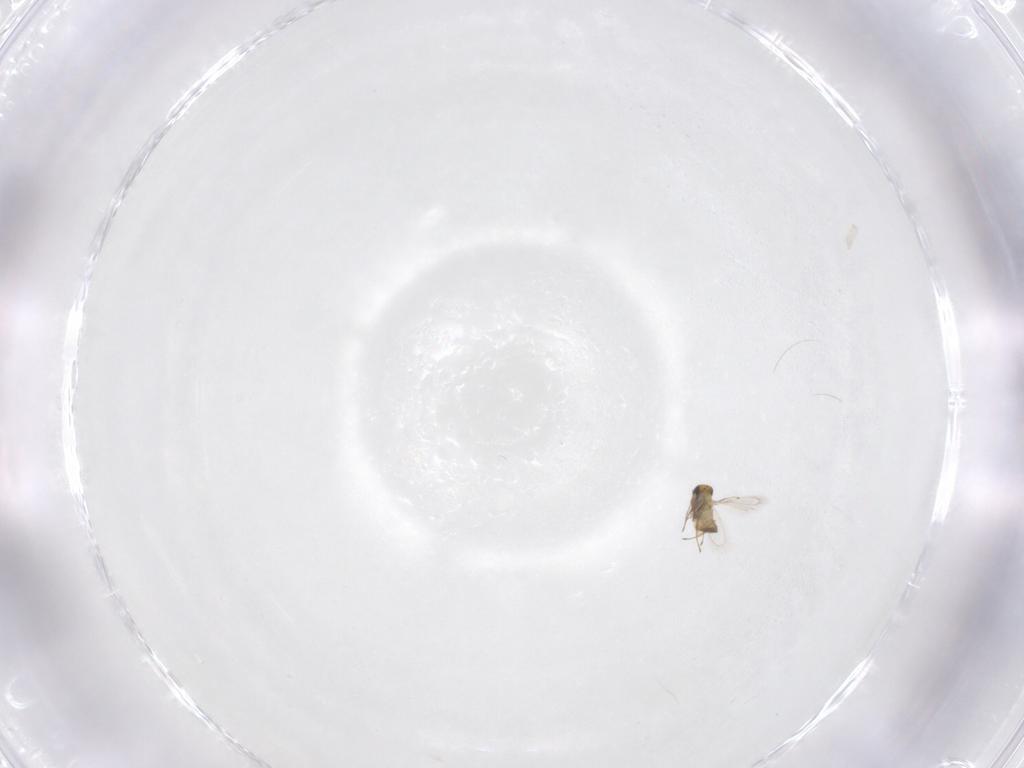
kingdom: Animalia
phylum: Arthropoda
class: Insecta
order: Hymenoptera
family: Trichogrammatidae
